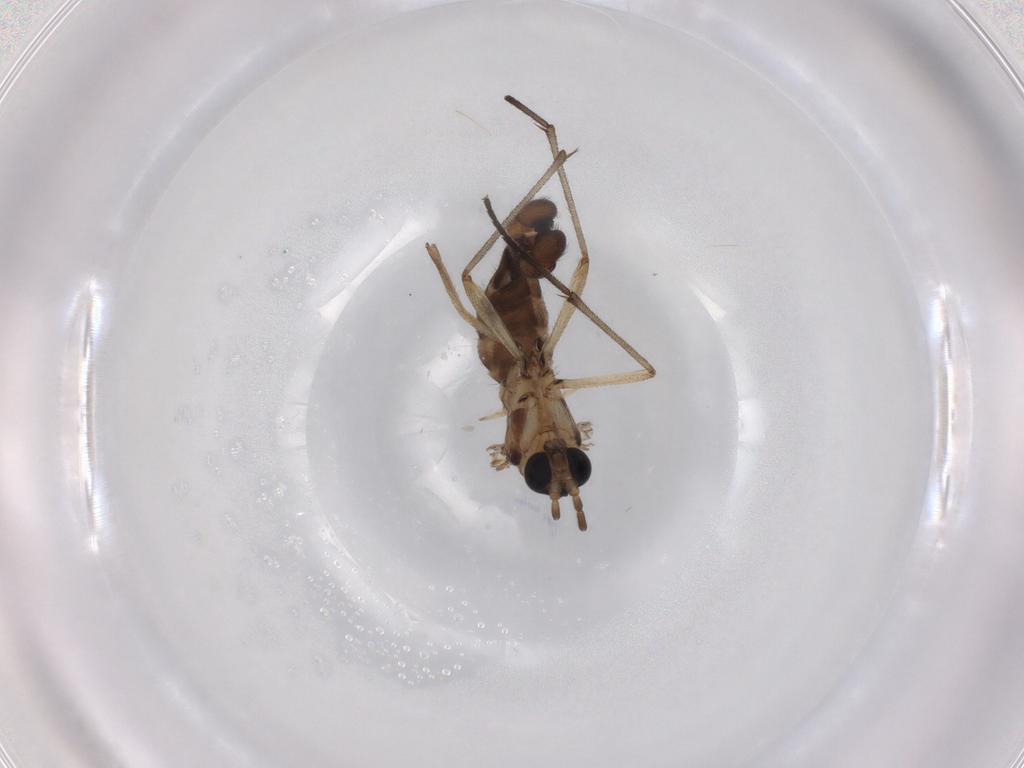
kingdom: Animalia
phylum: Arthropoda
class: Insecta
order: Diptera
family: Sciaridae
